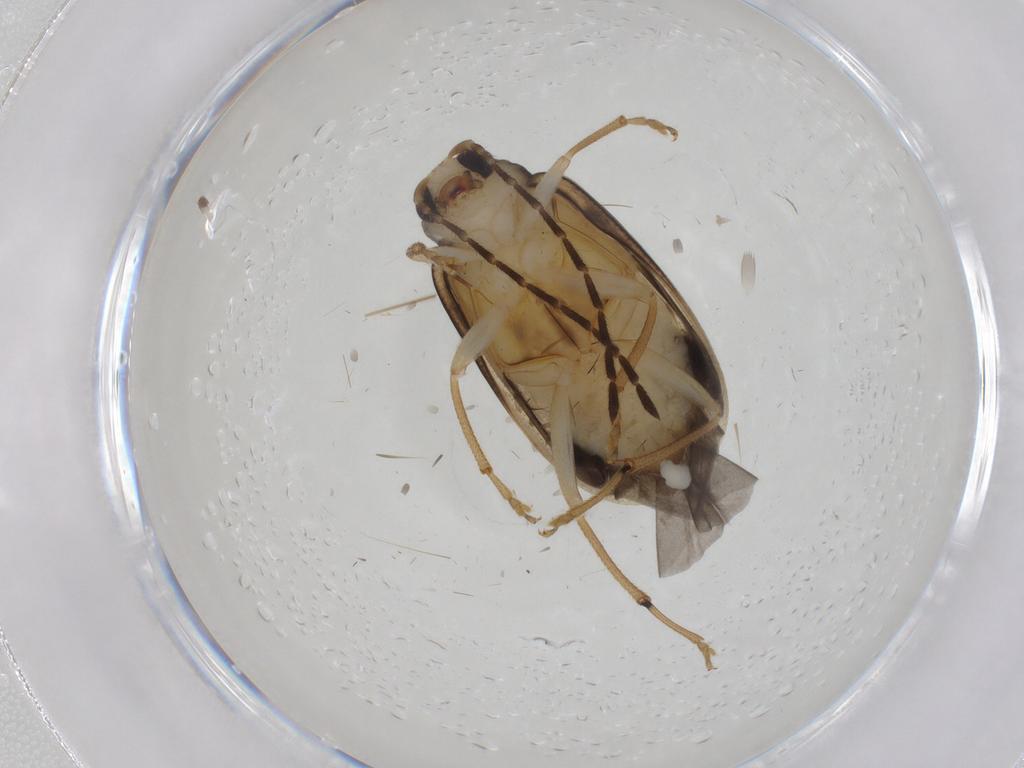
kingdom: Animalia
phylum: Arthropoda
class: Insecta
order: Coleoptera
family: Chrysomelidae
